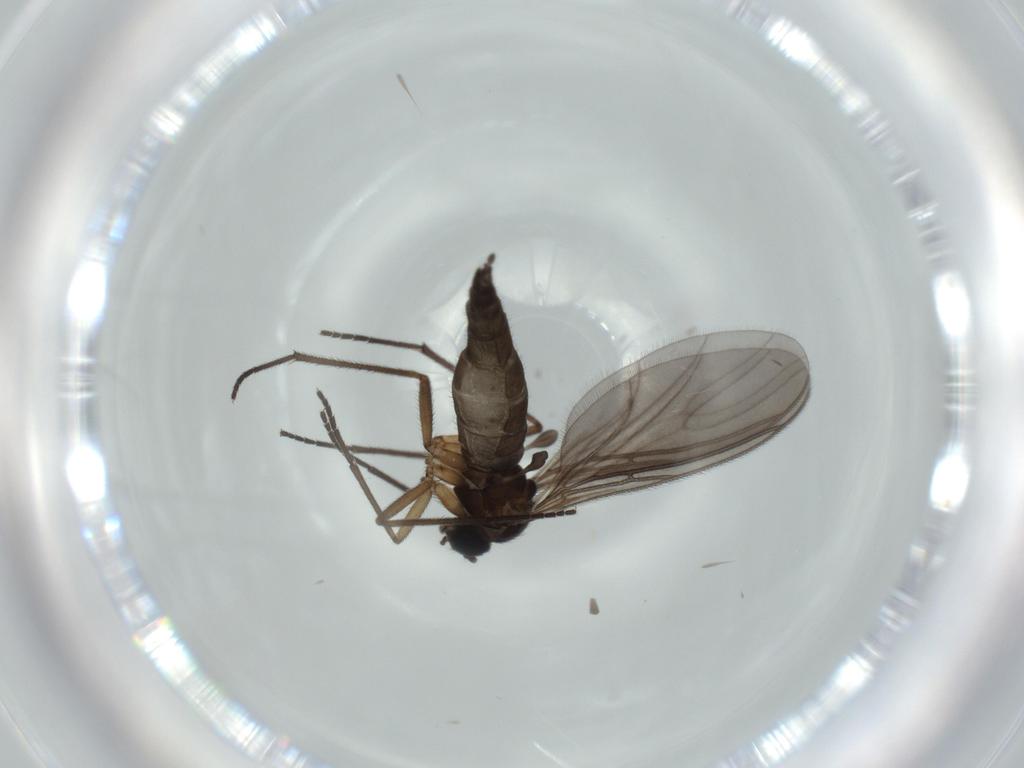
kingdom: Animalia
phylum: Arthropoda
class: Insecta
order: Diptera
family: Sciaridae
